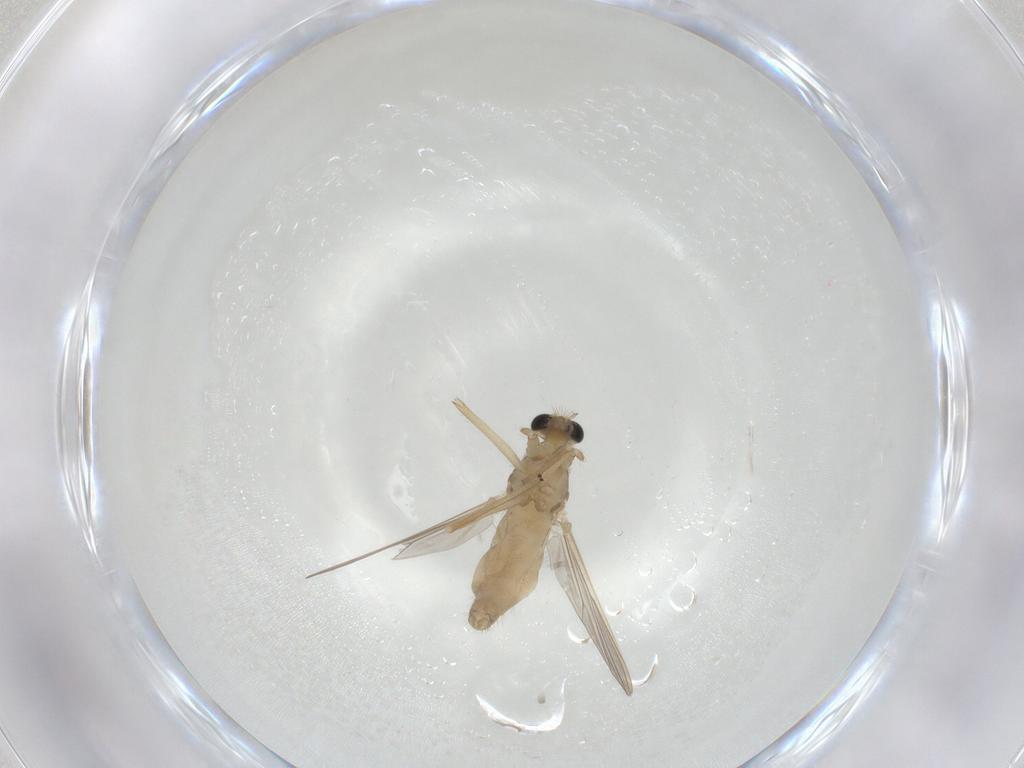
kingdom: Animalia
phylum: Arthropoda
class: Insecta
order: Diptera
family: Chironomidae
